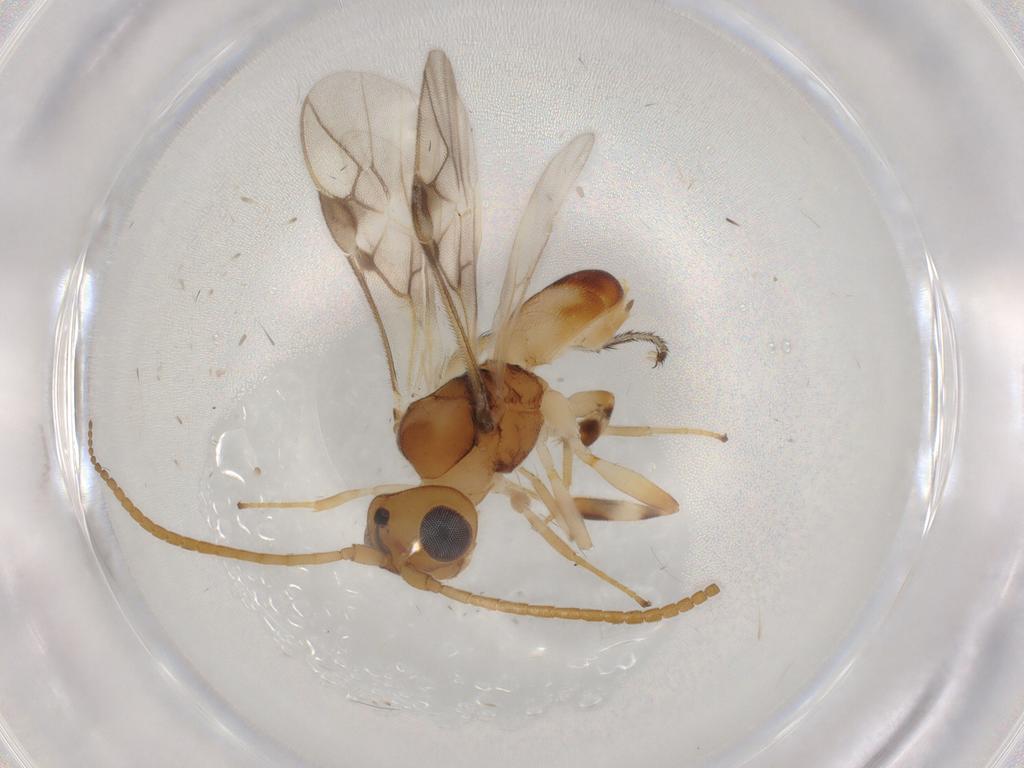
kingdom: Animalia
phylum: Arthropoda
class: Insecta
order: Hymenoptera
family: Braconidae
